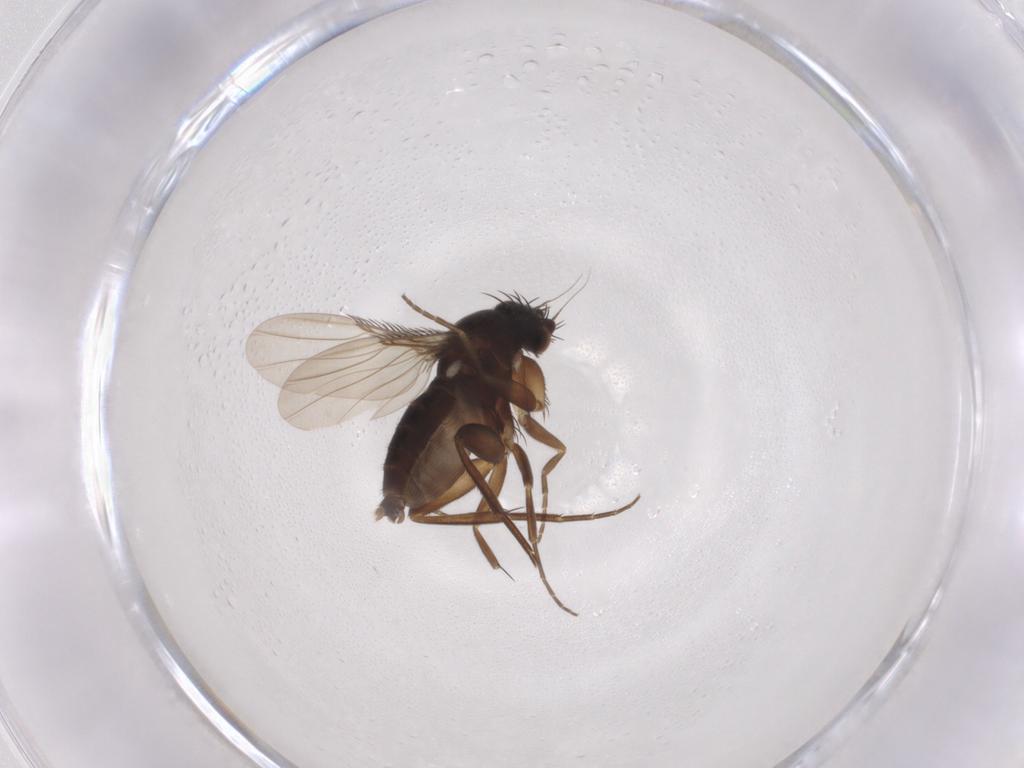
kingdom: Animalia
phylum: Arthropoda
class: Insecta
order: Diptera
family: Phoridae
